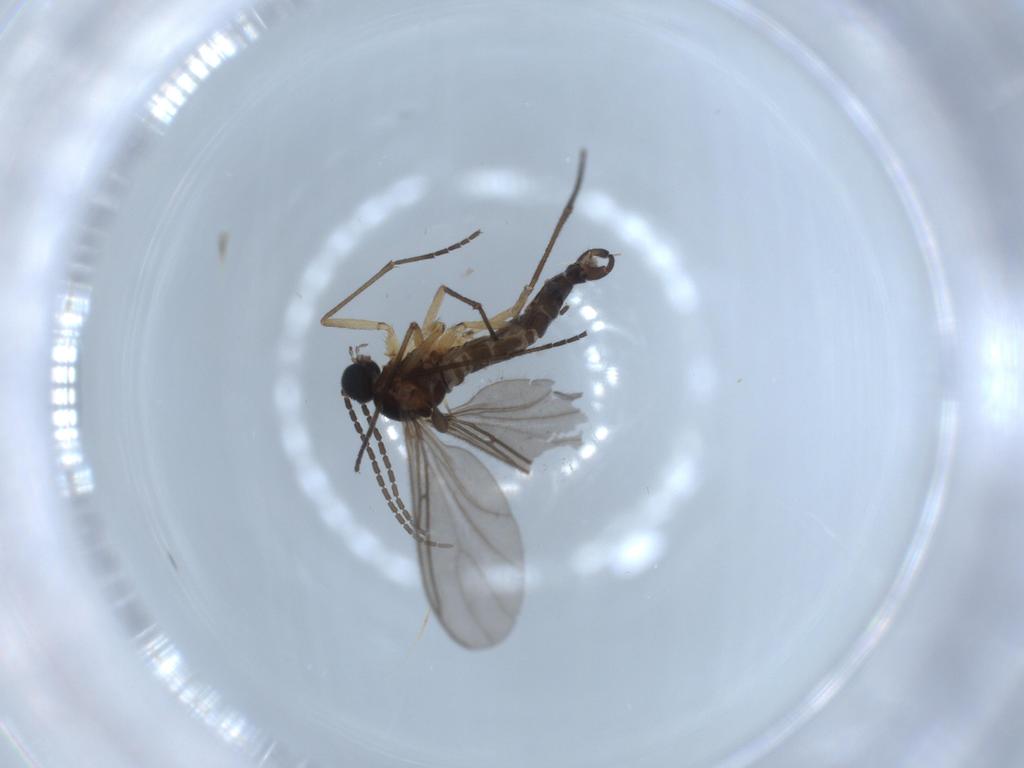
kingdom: Animalia
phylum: Arthropoda
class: Insecta
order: Diptera
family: Sciaridae
